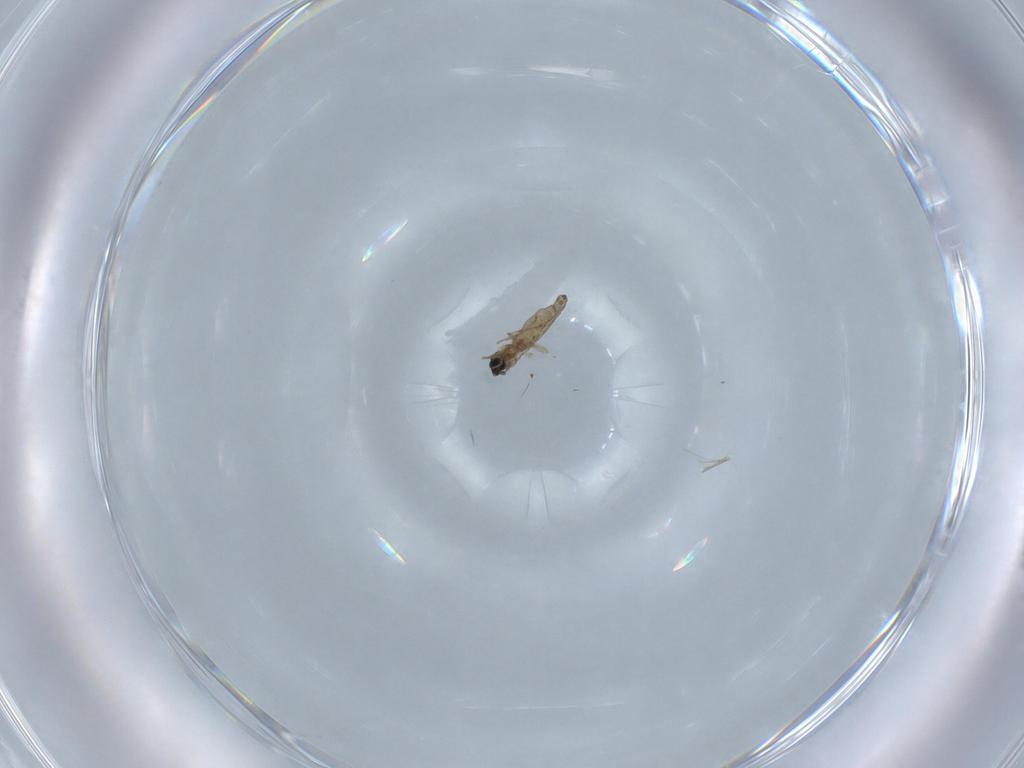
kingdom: Animalia
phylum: Arthropoda
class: Insecta
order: Diptera
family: Cecidomyiidae
